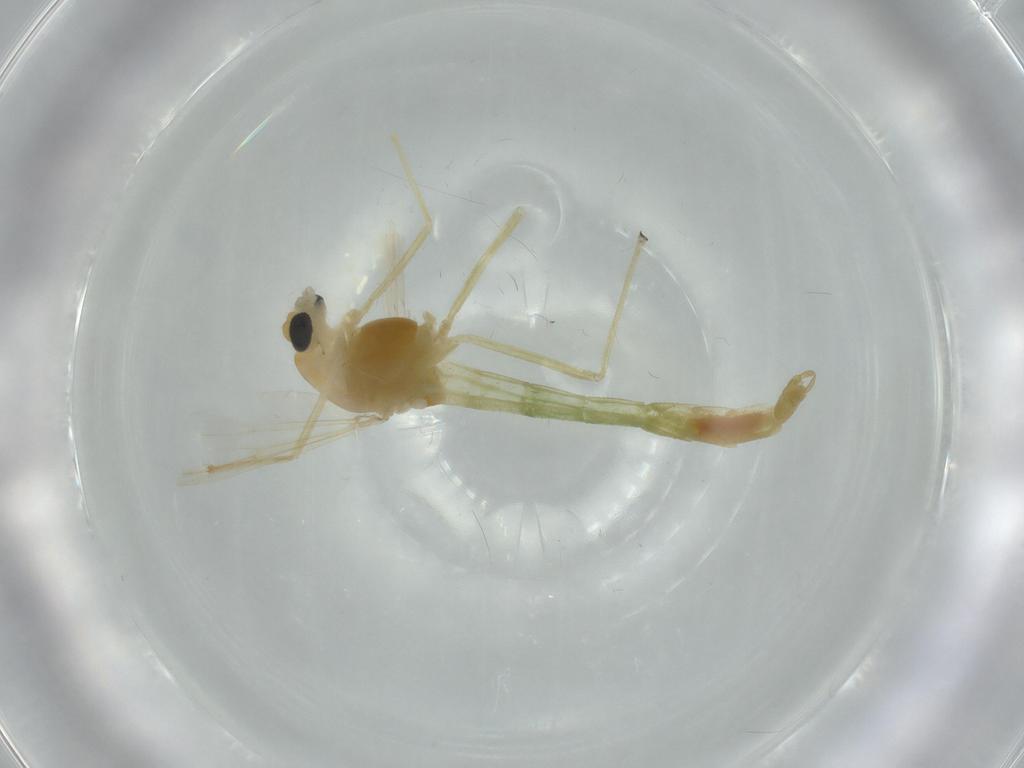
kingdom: Animalia
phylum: Arthropoda
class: Insecta
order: Diptera
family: Chironomidae
